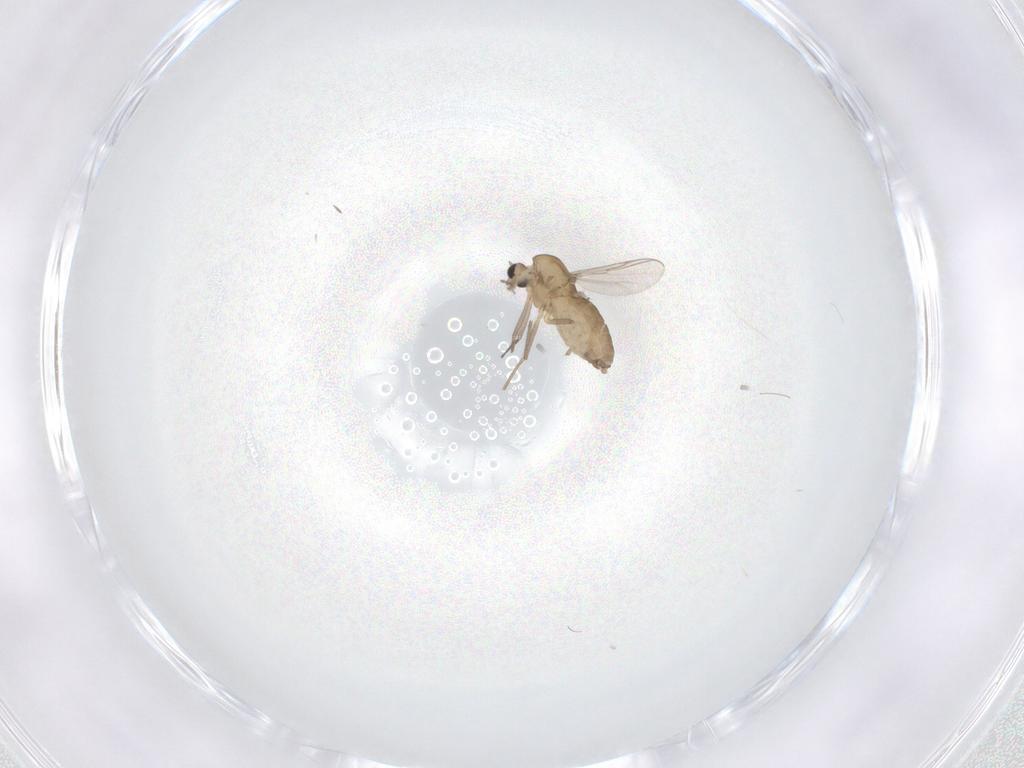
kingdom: Animalia
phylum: Arthropoda
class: Insecta
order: Diptera
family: Chironomidae
